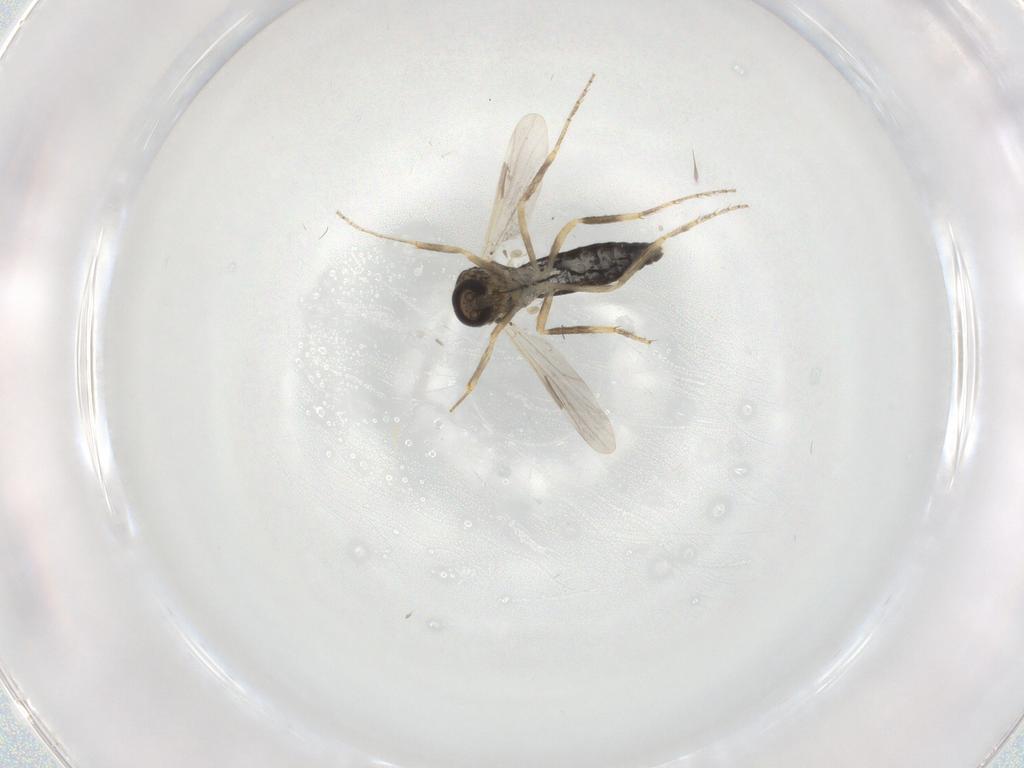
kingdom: Animalia
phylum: Arthropoda
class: Insecta
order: Diptera
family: Ceratopogonidae
